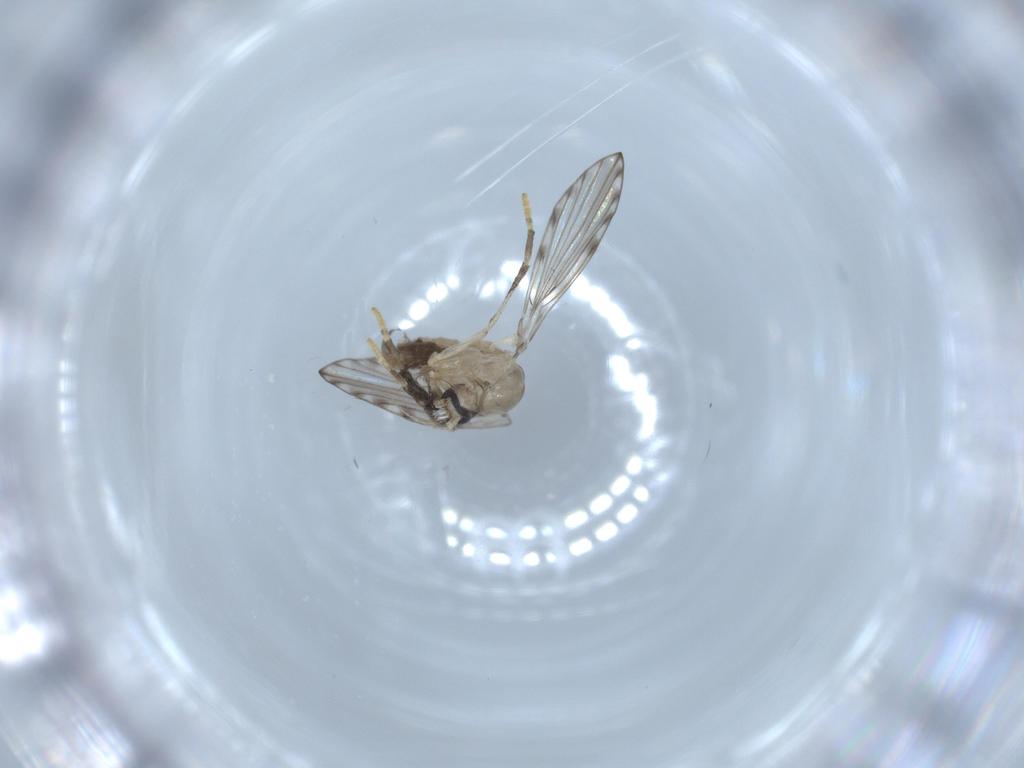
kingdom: Animalia
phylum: Arthropoda
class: Insecta
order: Diptera
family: Psychodidae
